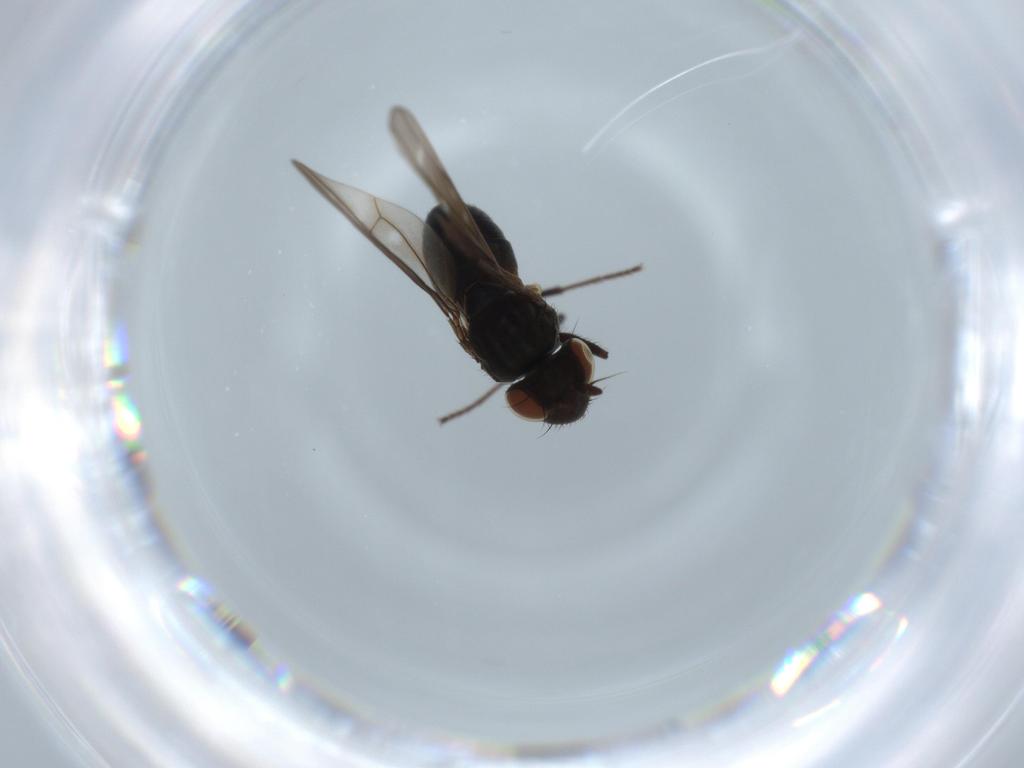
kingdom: Animalia
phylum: Arthropoda
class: Insecta
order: Diptera
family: Ephydridae
